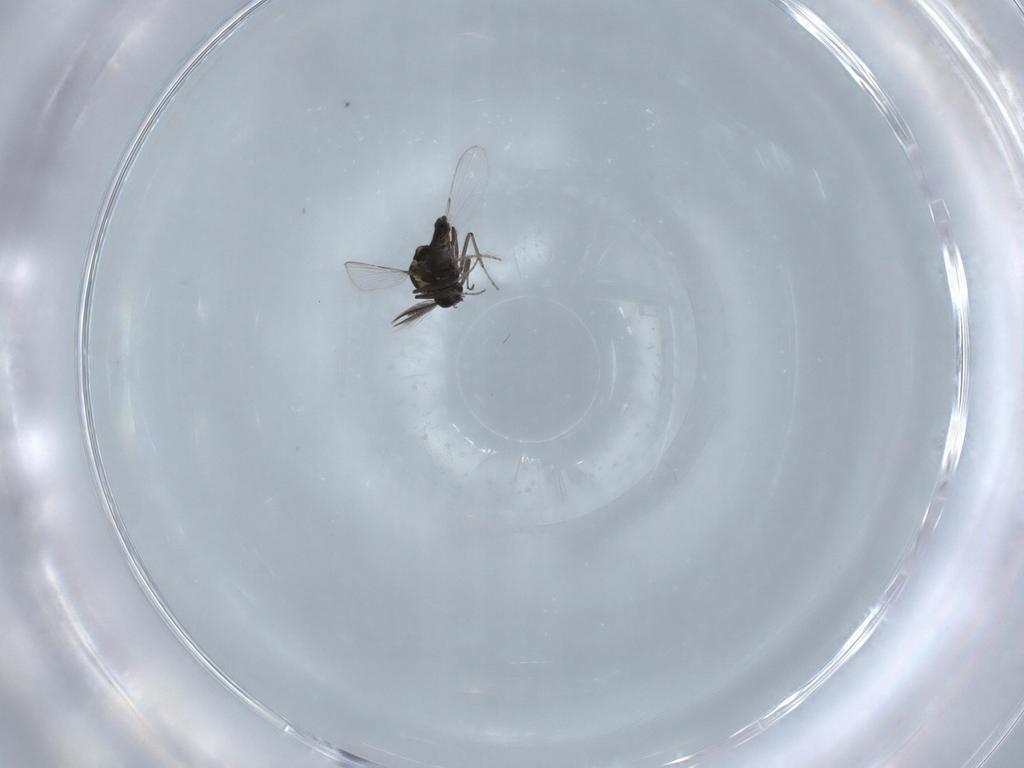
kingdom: Animalia
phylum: Arthropoda
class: Insecta
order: Diptera
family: Ceratopogonidae
